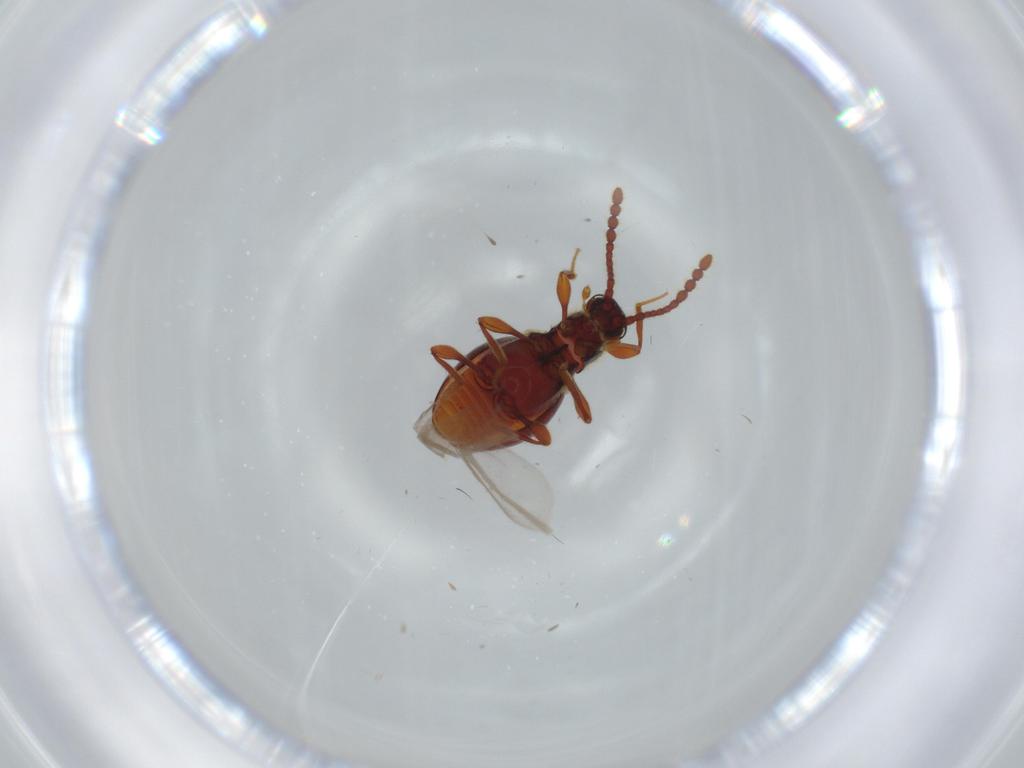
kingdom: Animalia
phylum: Arthropoda
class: Insecta
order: Coleoptera
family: Staphylinidae
